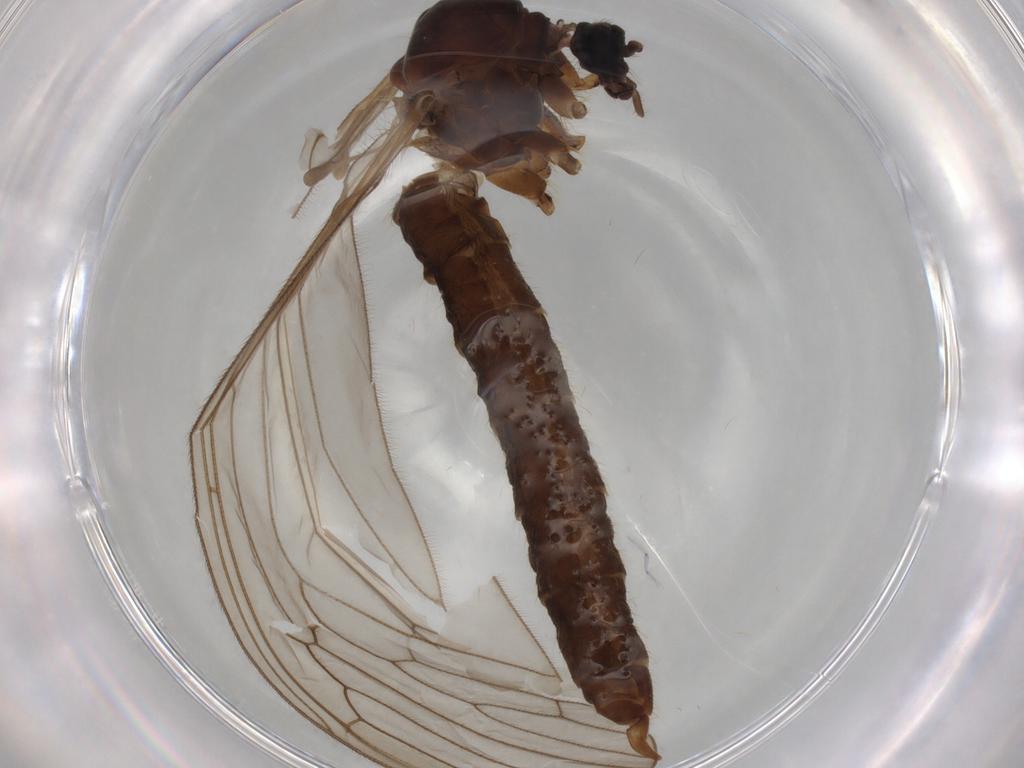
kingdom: Animalia
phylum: Arthropoda
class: Insecta
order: Diptera
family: Trichoceridae
